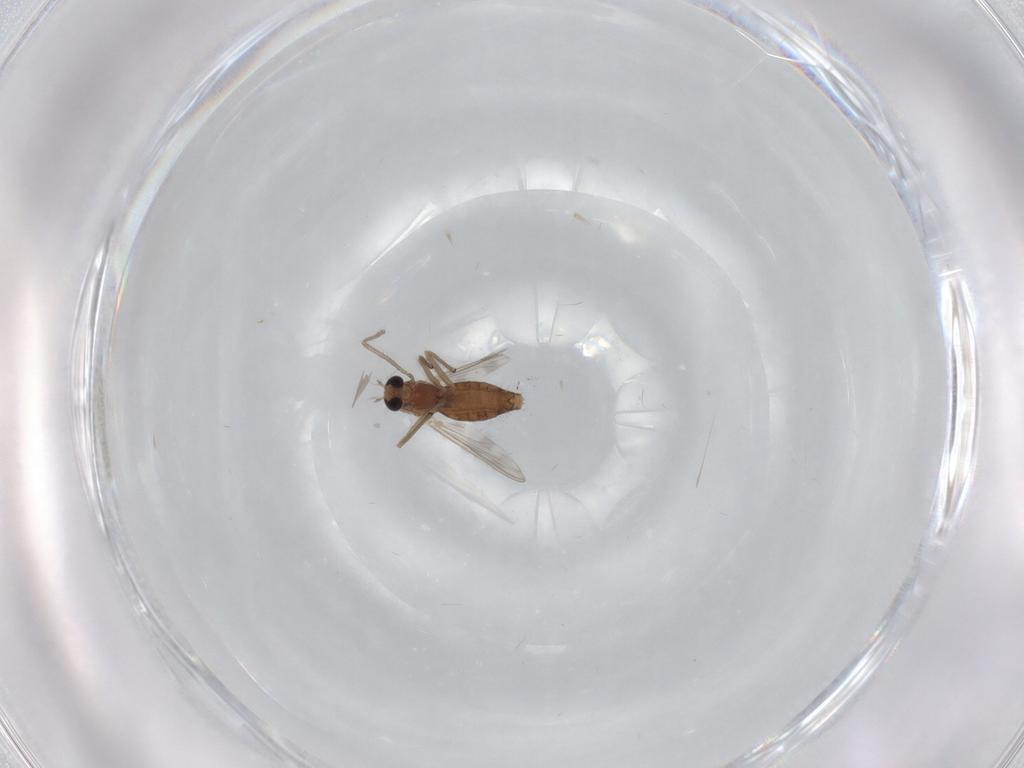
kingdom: Animalia
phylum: Arthropoda
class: Insecta
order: Diptera
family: Chironomidae
